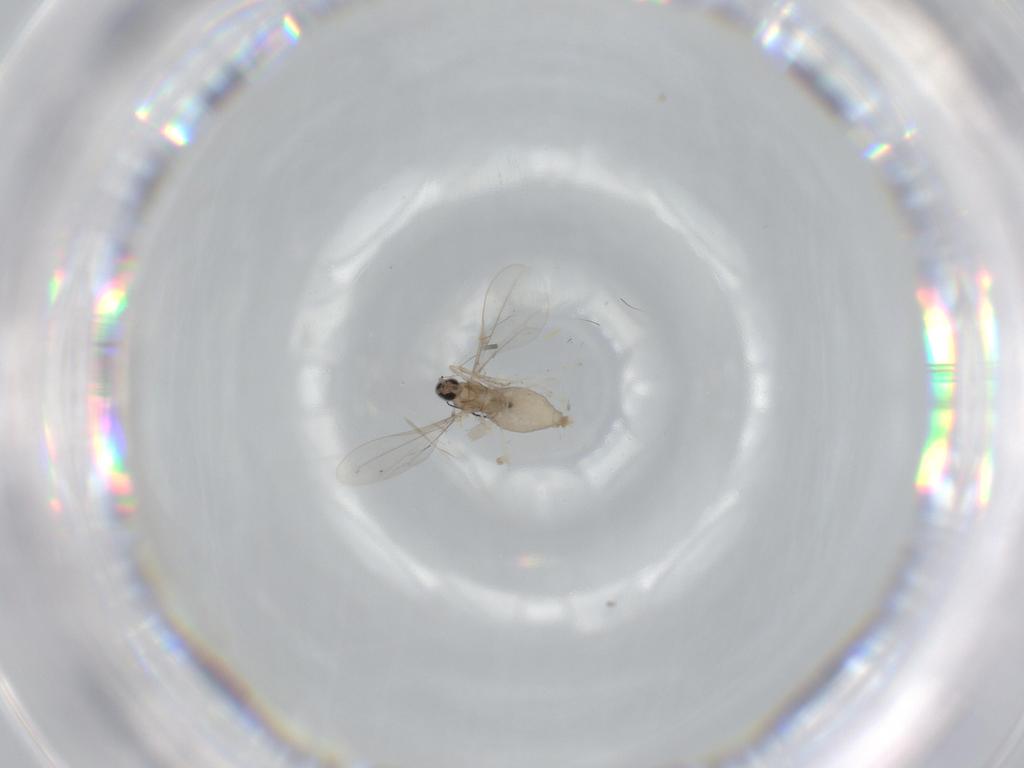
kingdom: Animalia
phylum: Arthropoda
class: Insecta
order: Diptera
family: Cecidomyiidae
